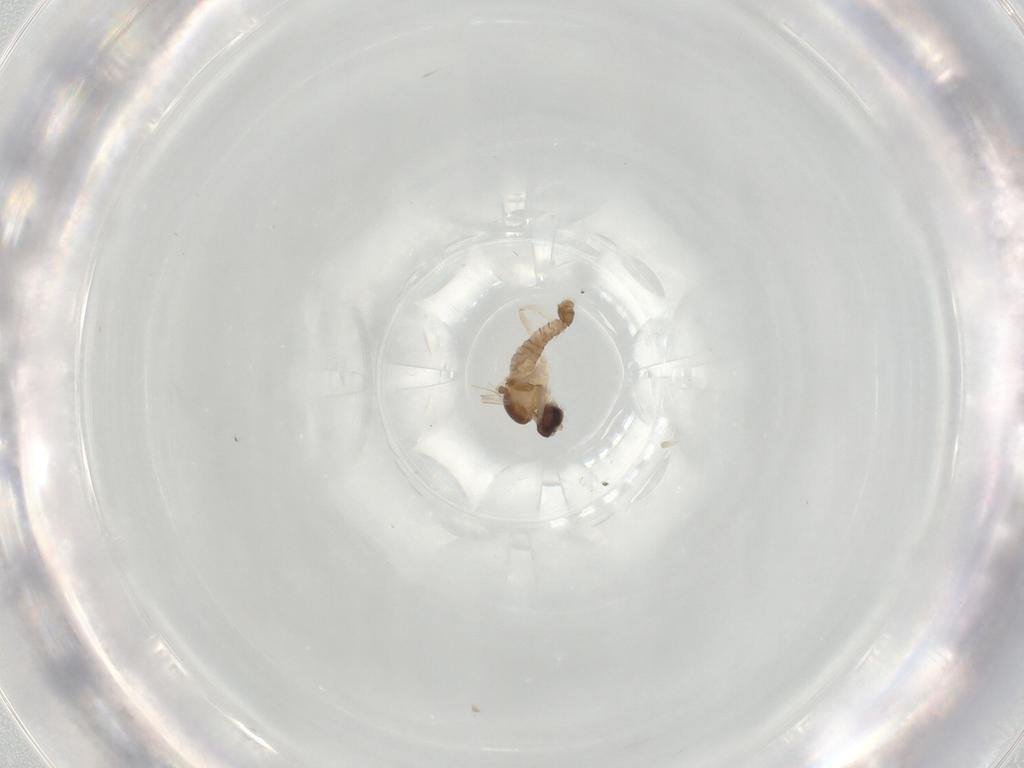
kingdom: Animalia
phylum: Arthropoda
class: Insecta
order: Diptera
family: Cecidomyiidae
